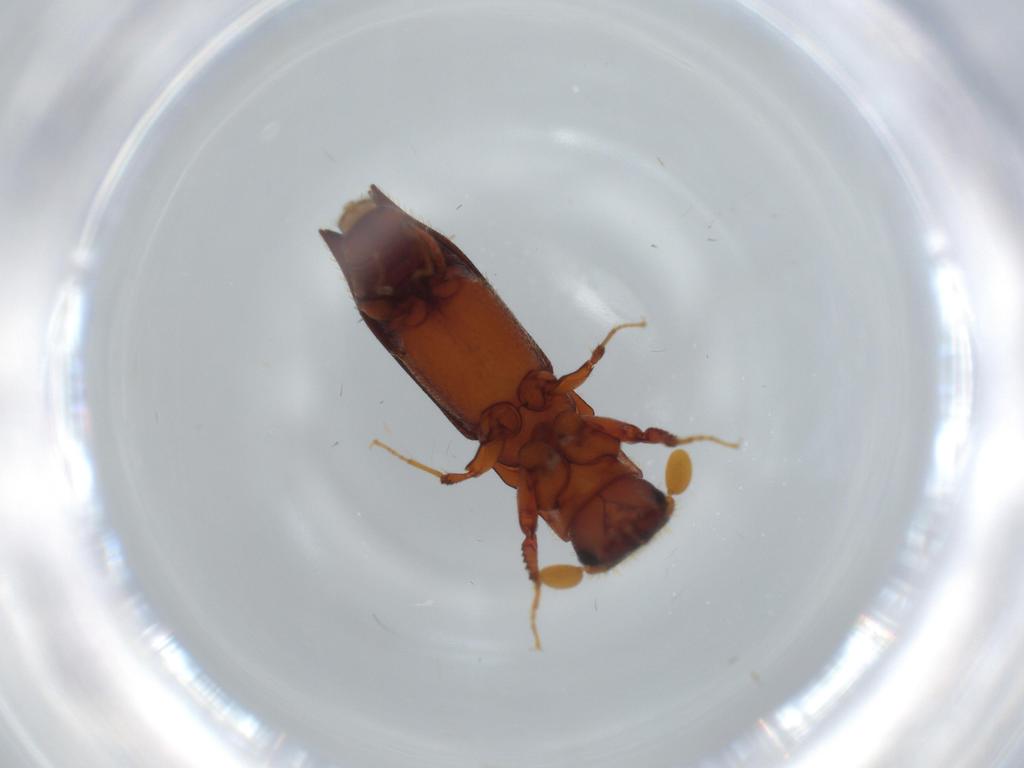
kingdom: Animalia
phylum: Arthropoda
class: Insecta
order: Coleoptera
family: Curculionidae
